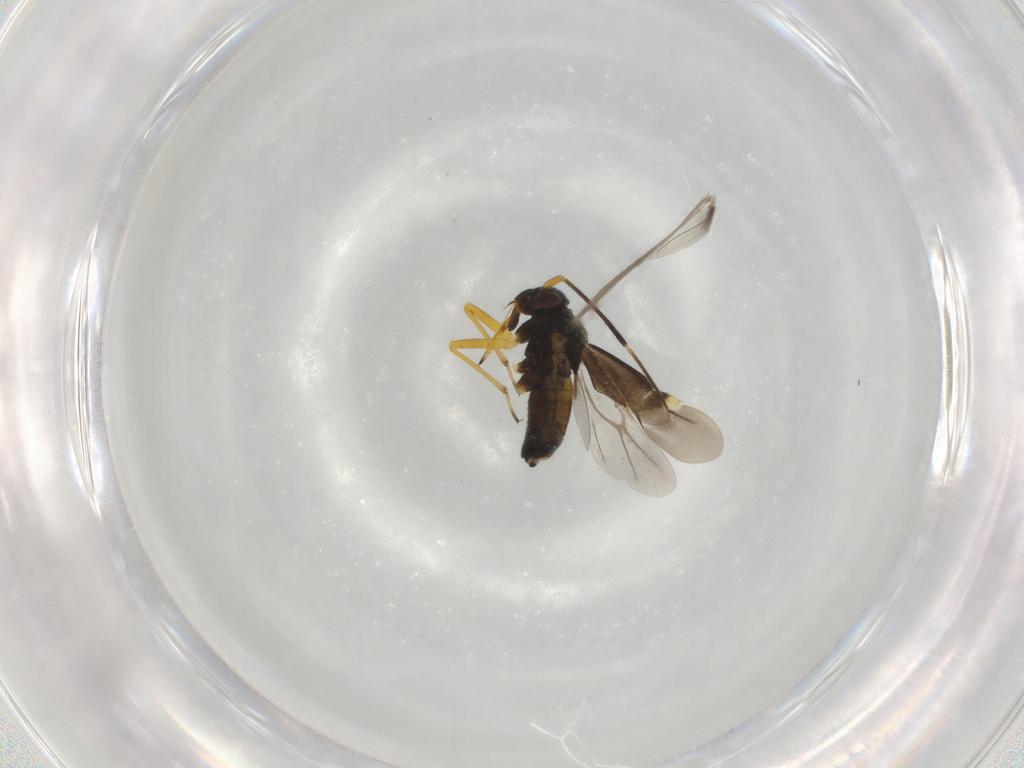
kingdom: Animalia
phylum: Arthropoda
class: Insecta
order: Hemiptera
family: Miridae
